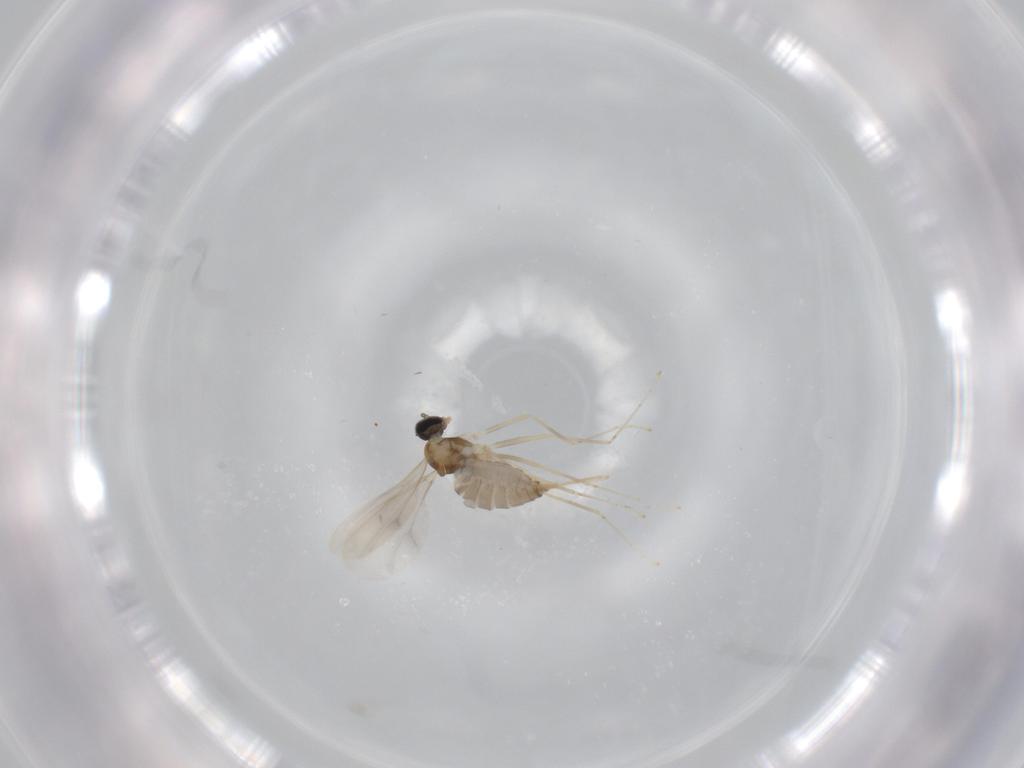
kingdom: Animalia
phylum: Arthropoda
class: Insecta
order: Diptera
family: Cecidomyiidae
